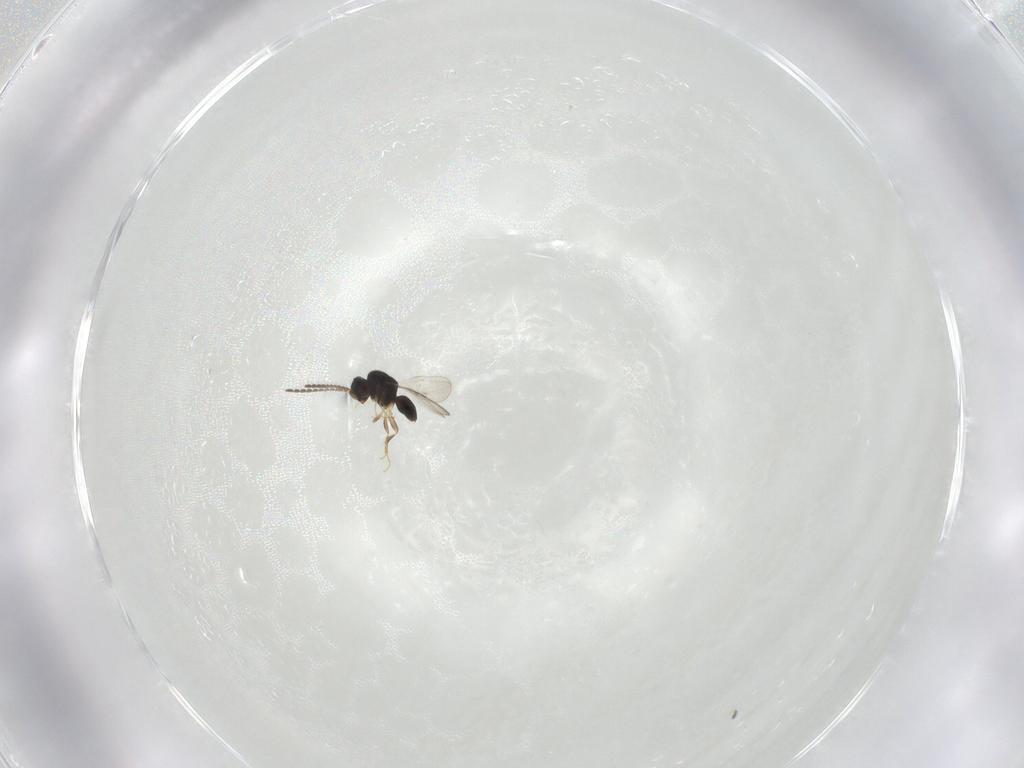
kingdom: Animalia
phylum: Arthropoda
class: Insecta
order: Hymenoptera
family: Ceraphronidae
